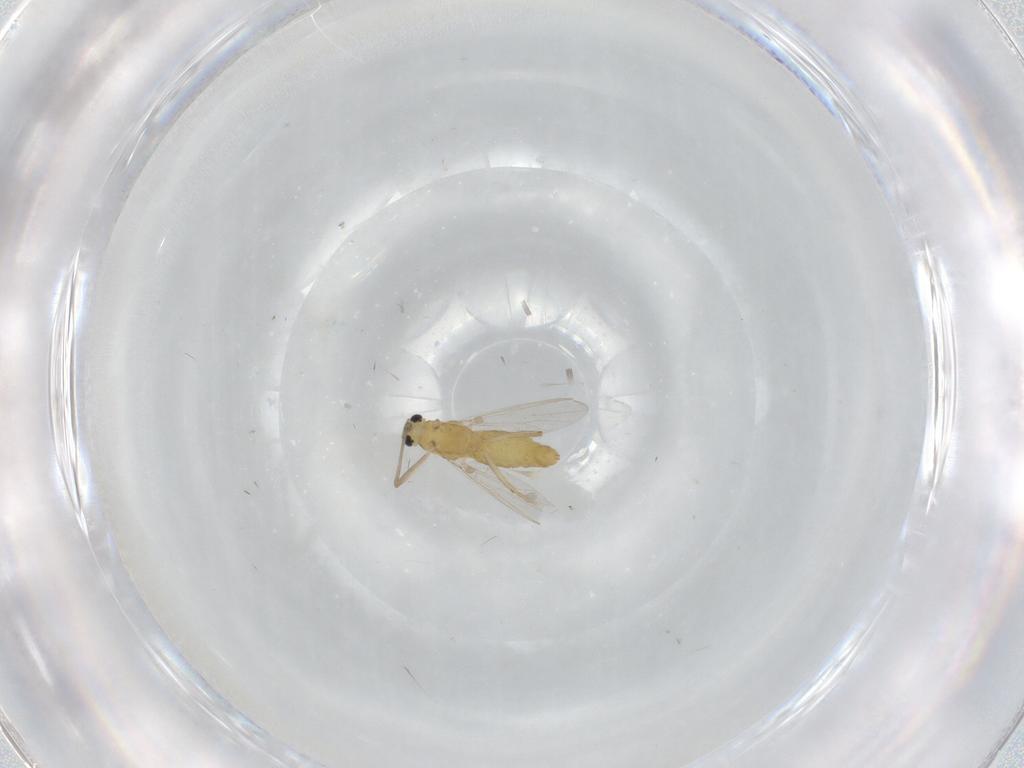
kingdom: Animalia
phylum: Arthropoda
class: Insecta
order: Diptera
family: Chironomidae
